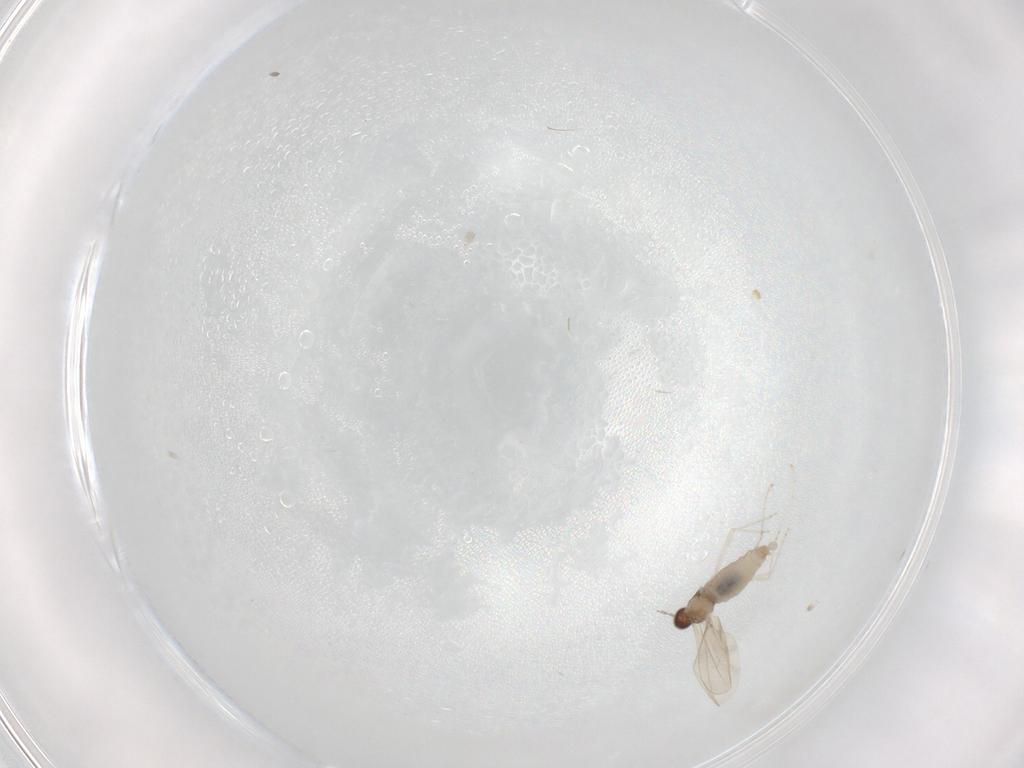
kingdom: Animalia
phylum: Arthropoda
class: Insecta
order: Diptera
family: Cecidomyiidae
